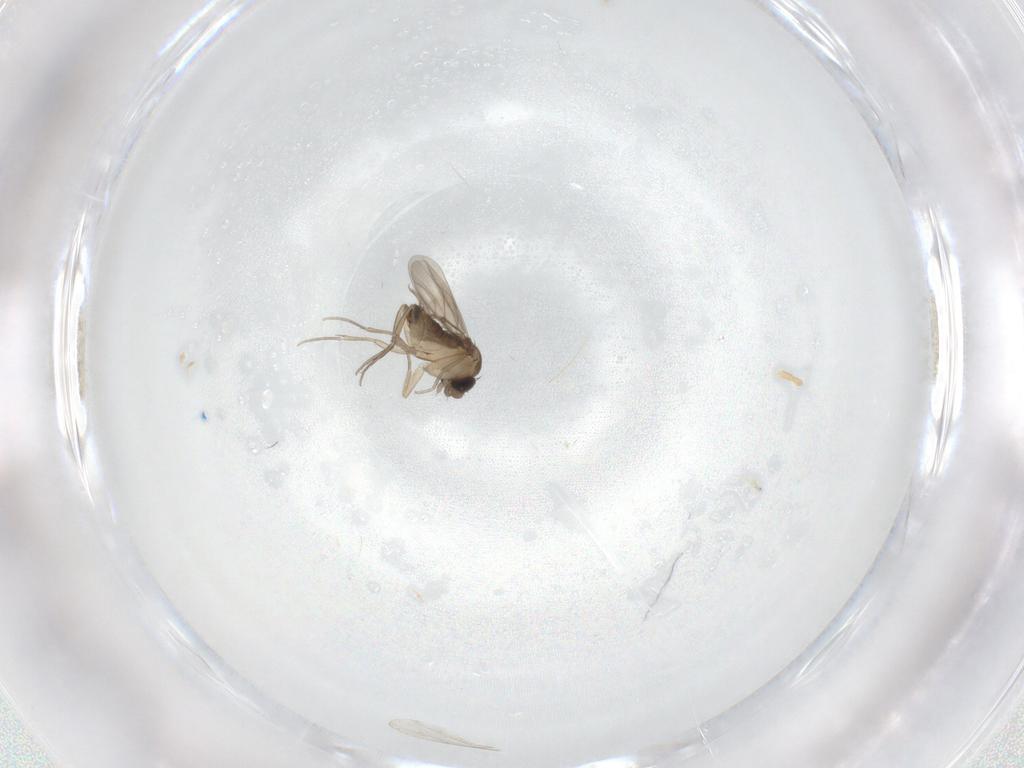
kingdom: Animalia
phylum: Arthropoda
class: Insecta
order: Diptera
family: Phoridae
